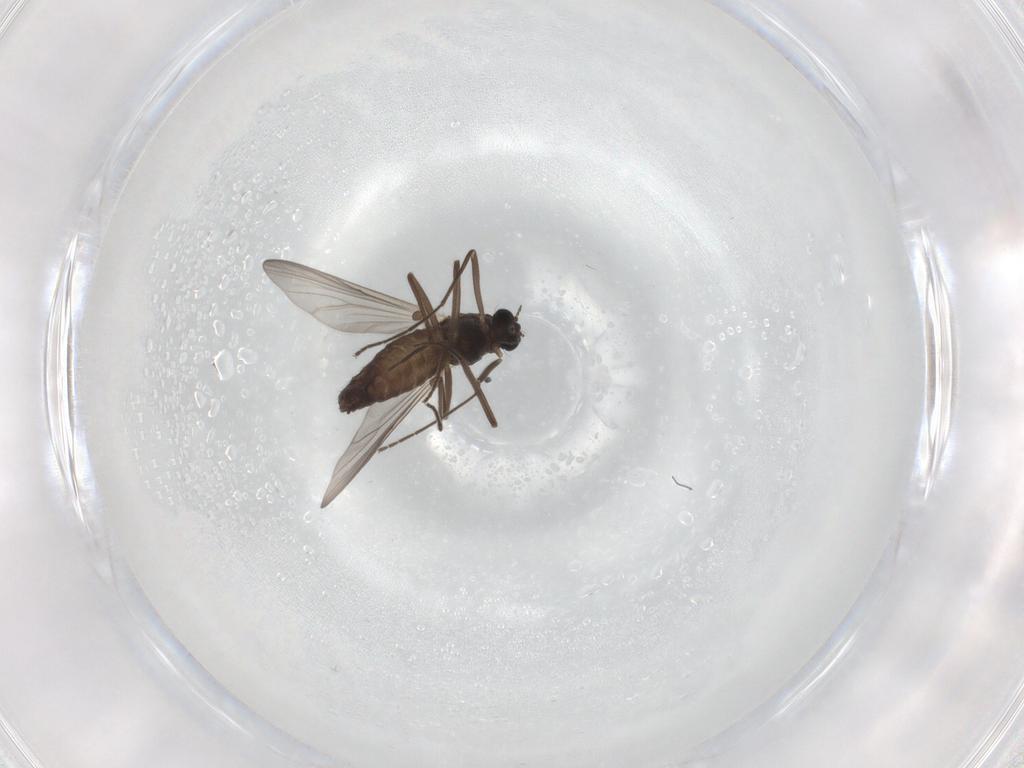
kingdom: Animalia
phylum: Arthropoda
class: Insecta
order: Diptera
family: Chironomidae
